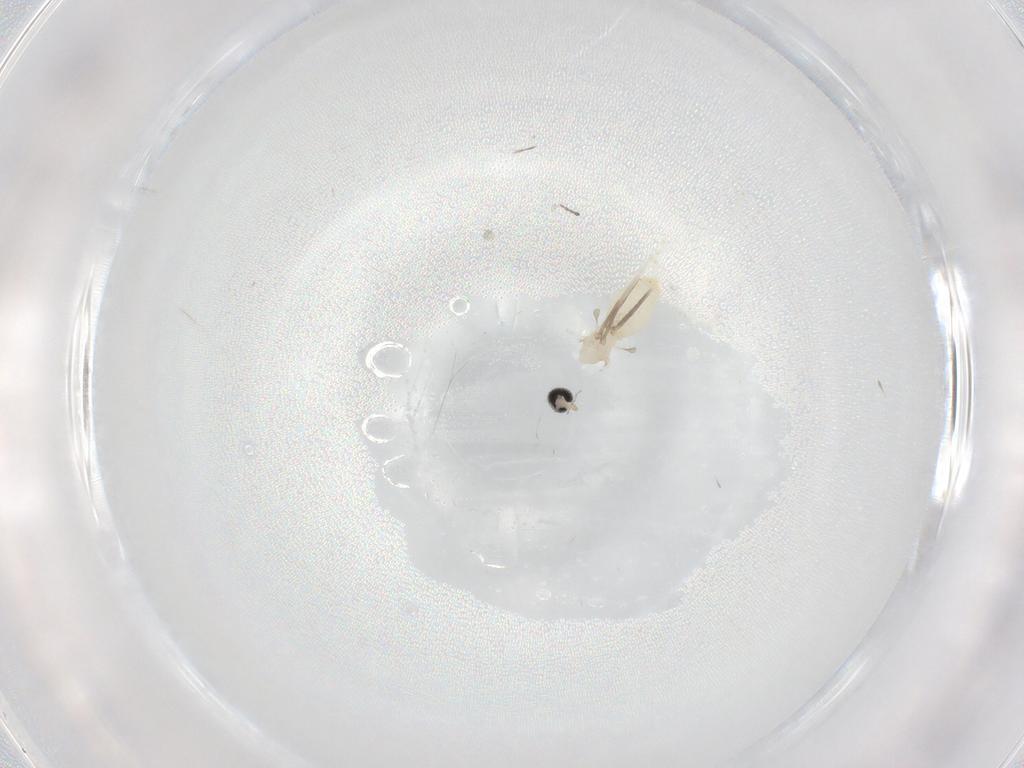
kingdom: Animalia
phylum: Arthropoda
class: Insecta
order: Diptera
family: Cecidomyiidae
